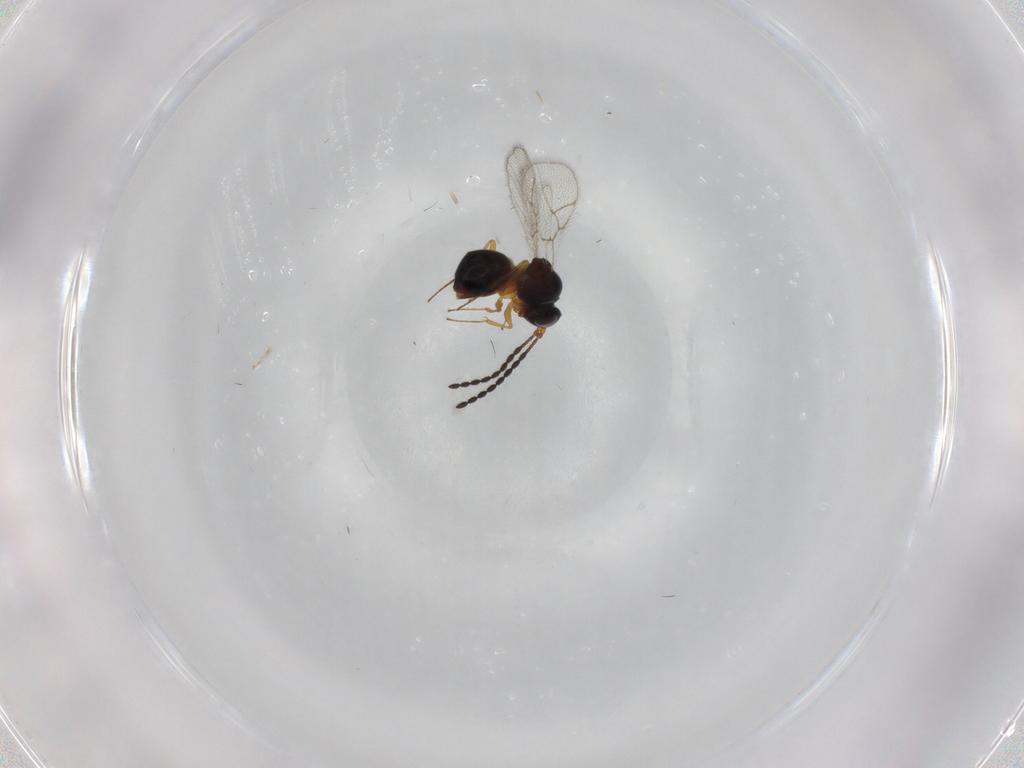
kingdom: Animalia
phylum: Arthropoda
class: Insecta
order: Hymenoptera
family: Figitidae
